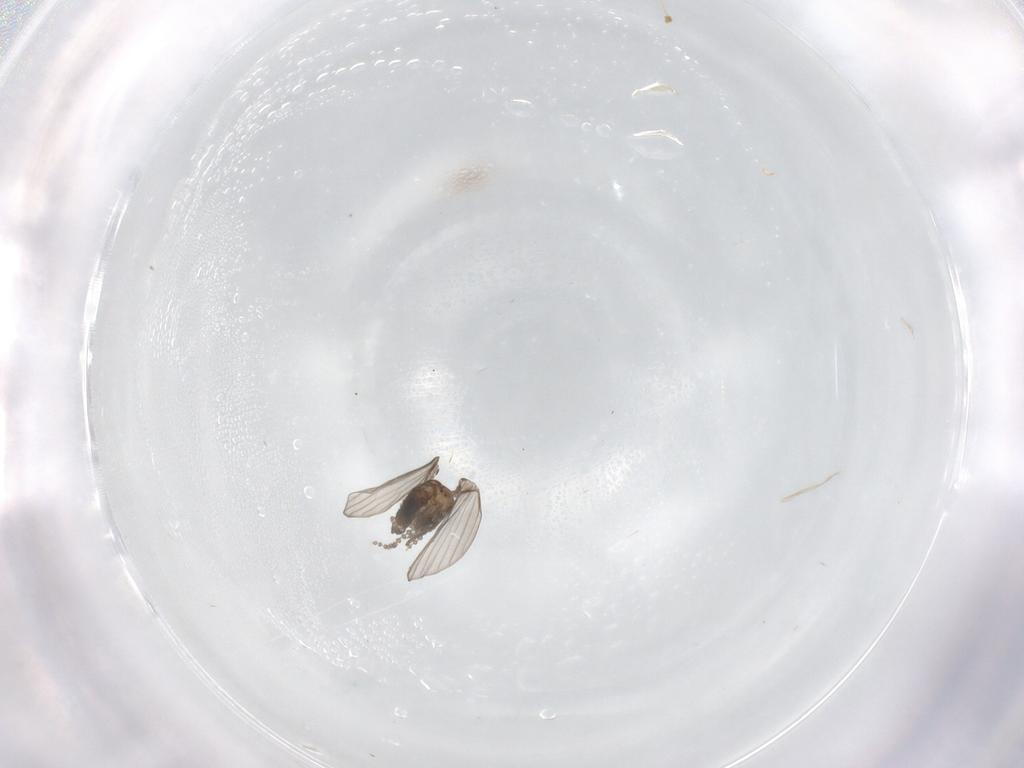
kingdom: Animalia
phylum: Arthropoda
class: Insecta
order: Diptera
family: Psychodidae
